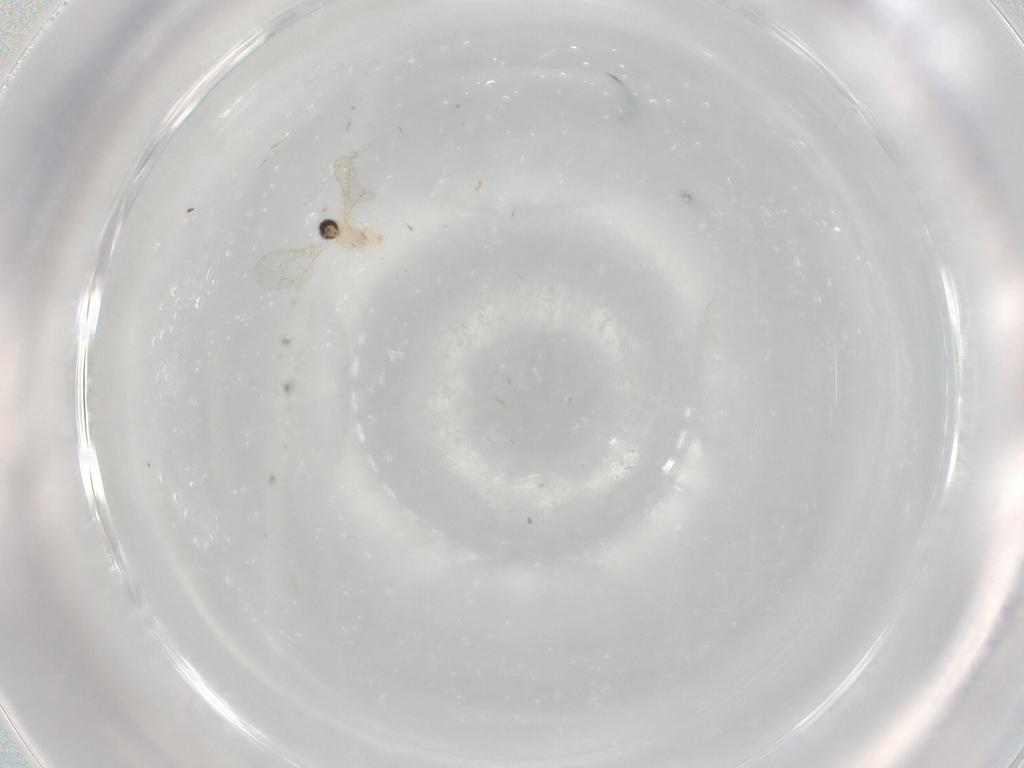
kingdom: Animalia
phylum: Arthropoda
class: Insecta
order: Diptera
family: Cecidomyiidae
